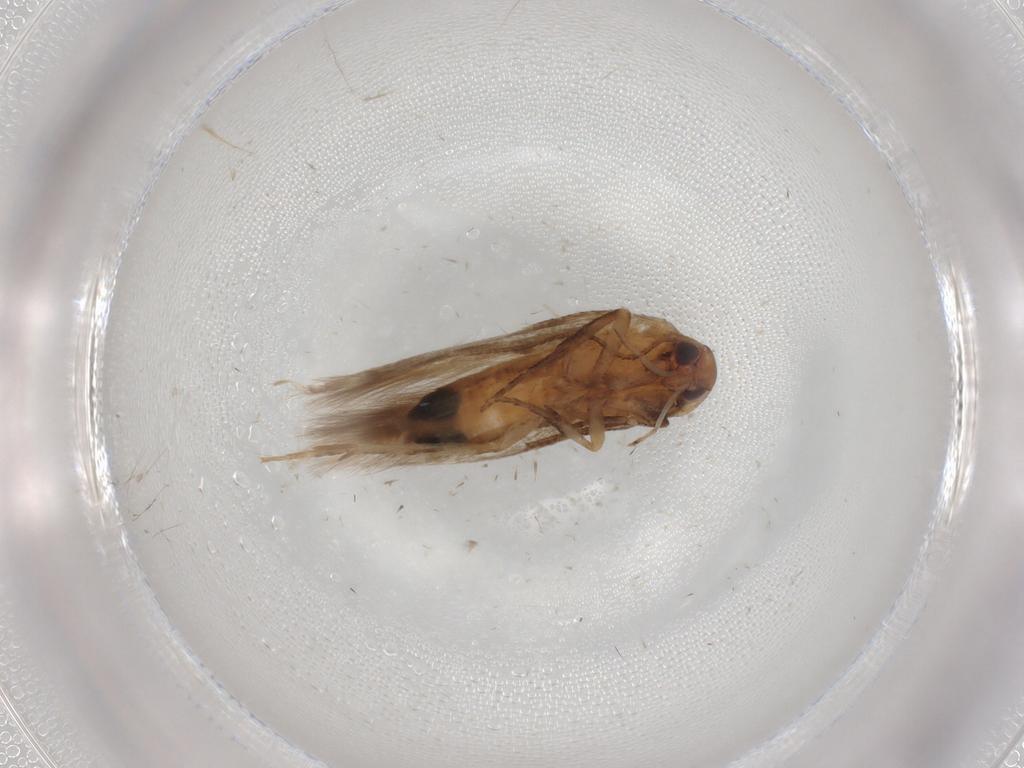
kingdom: Animalia
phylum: Arthropoda
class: Insecta
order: Lepidoptera
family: Cosmopterigidae
